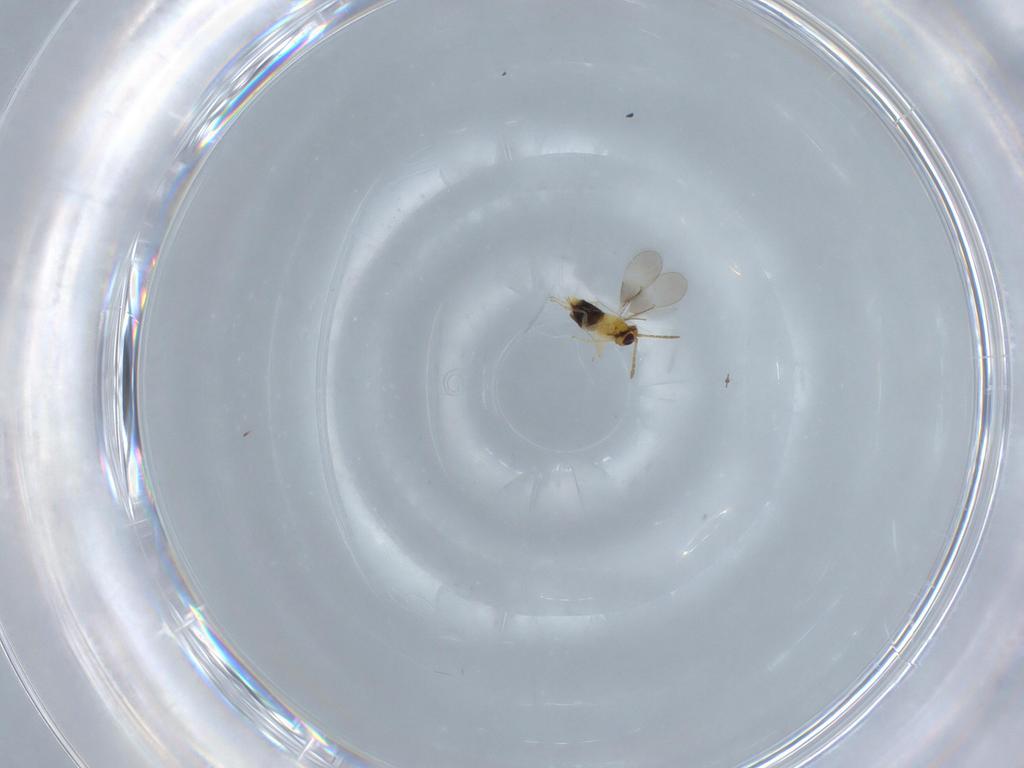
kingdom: Animalia
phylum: Arthropoda
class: Insecta
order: Hymenoptera
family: Aphelinidae
